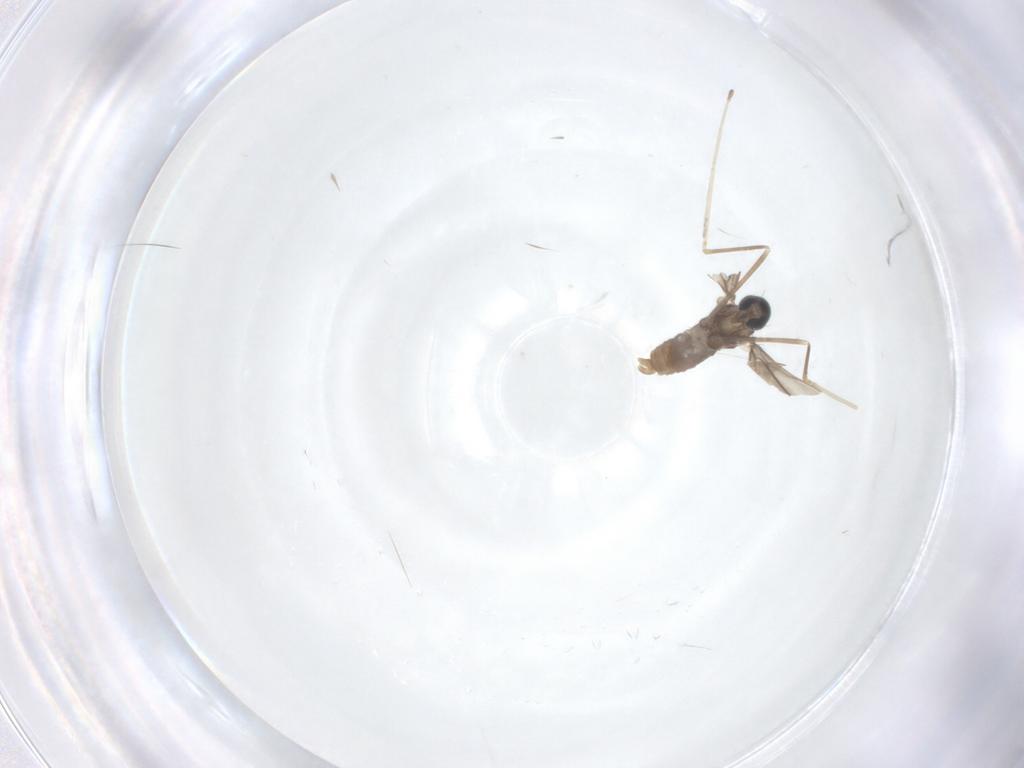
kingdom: Animalia
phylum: Arthropoda
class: Insecta
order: Diptera
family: Cecidomyiidae
